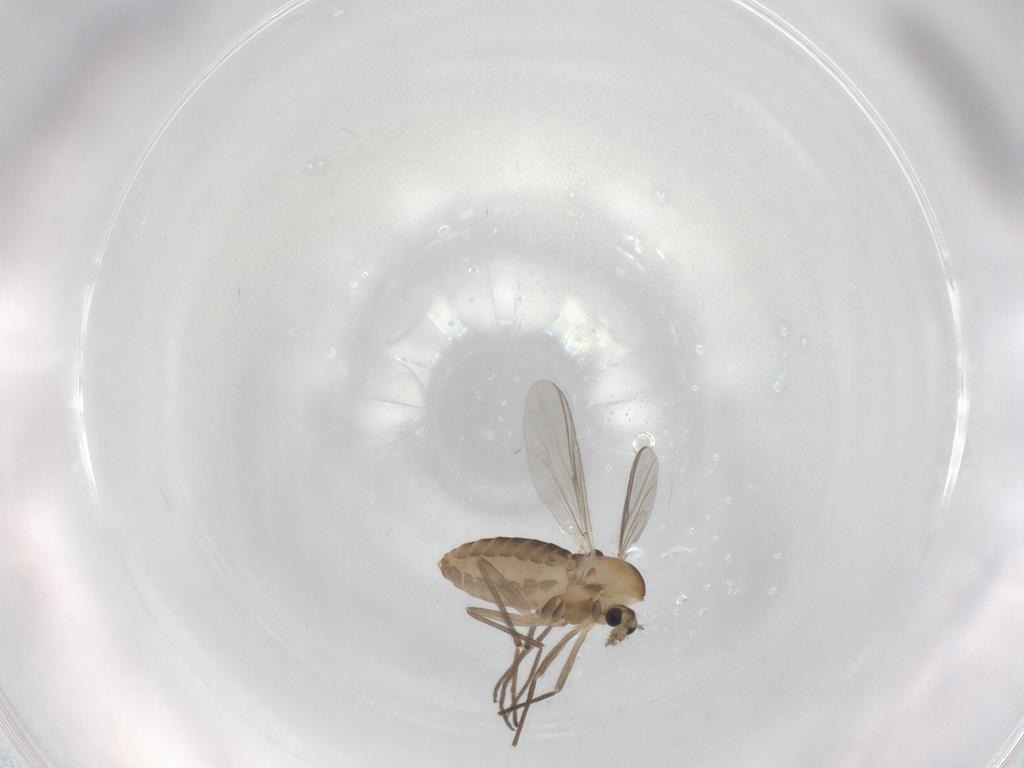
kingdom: Animalia
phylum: Arthropoda
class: Insecta
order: Diptera
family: Chironomidae
